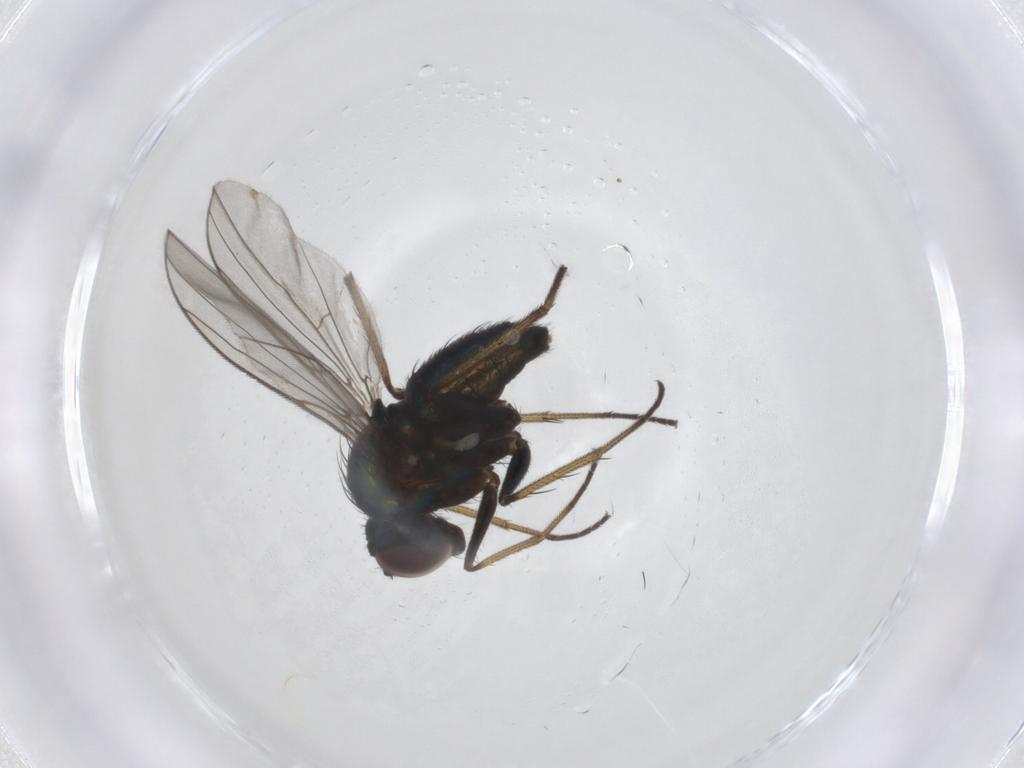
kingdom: Animalia
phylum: Arthropoda
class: Insecta
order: Diptera
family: Dolichopodidae
